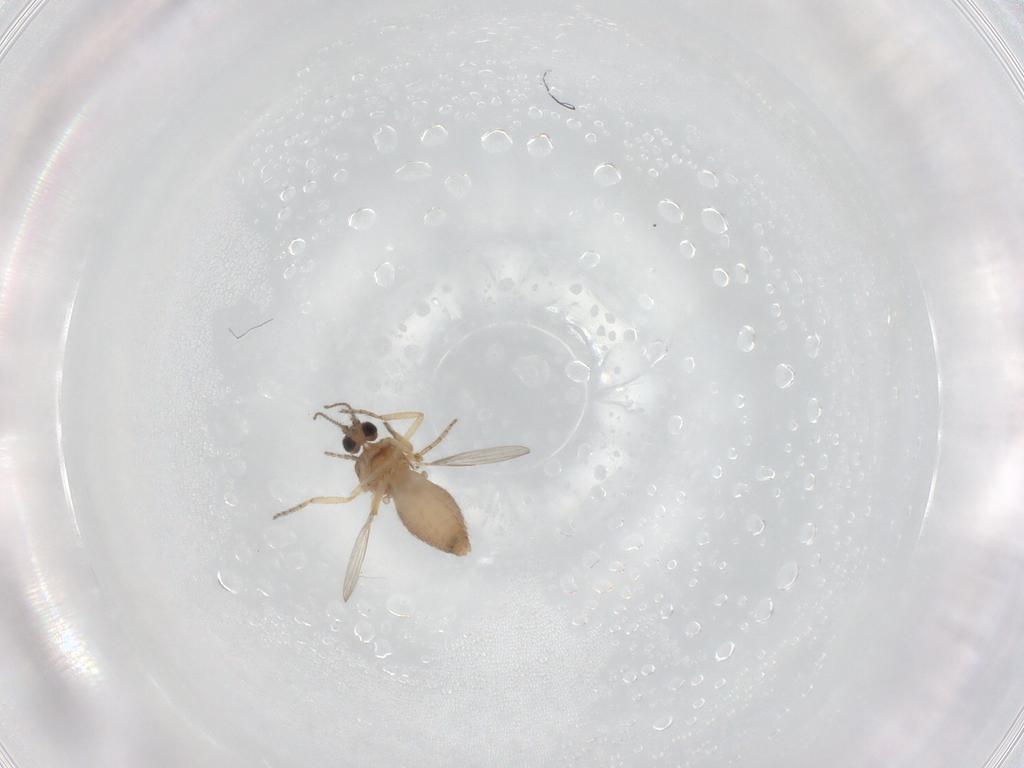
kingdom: Animalia
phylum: Arthropoda
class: Insecta
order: Diptera
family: Ceratopogonidae
